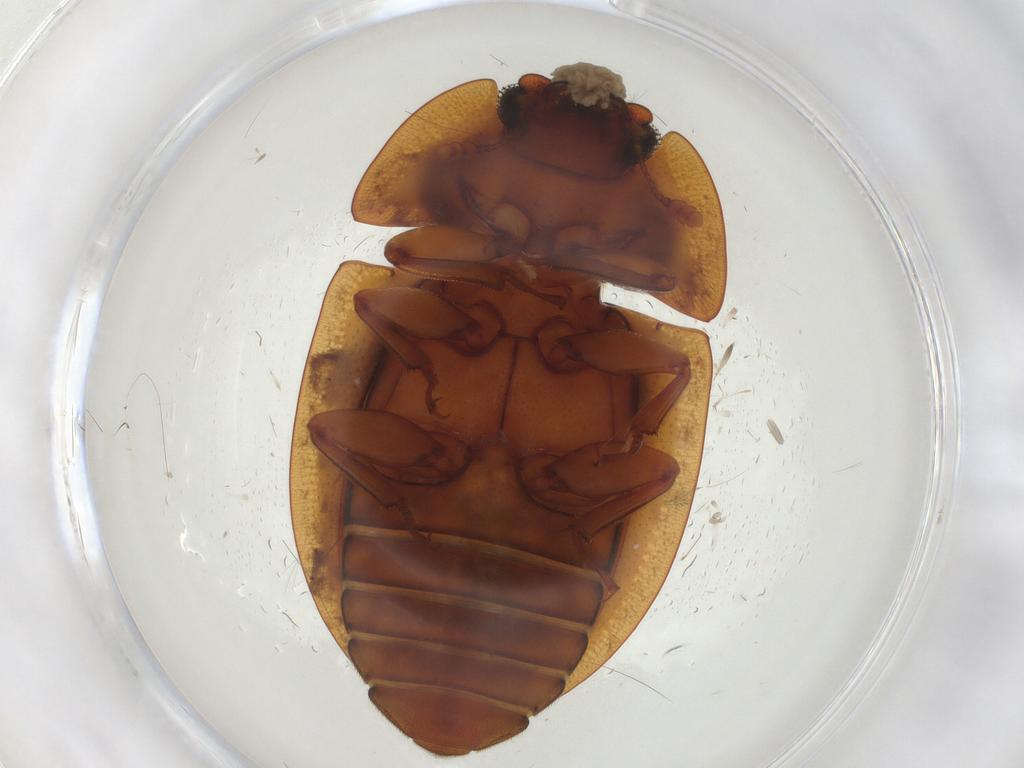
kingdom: Animalia
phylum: Arthropoda
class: Insecta
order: Coleoptera
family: Nitidulidae
